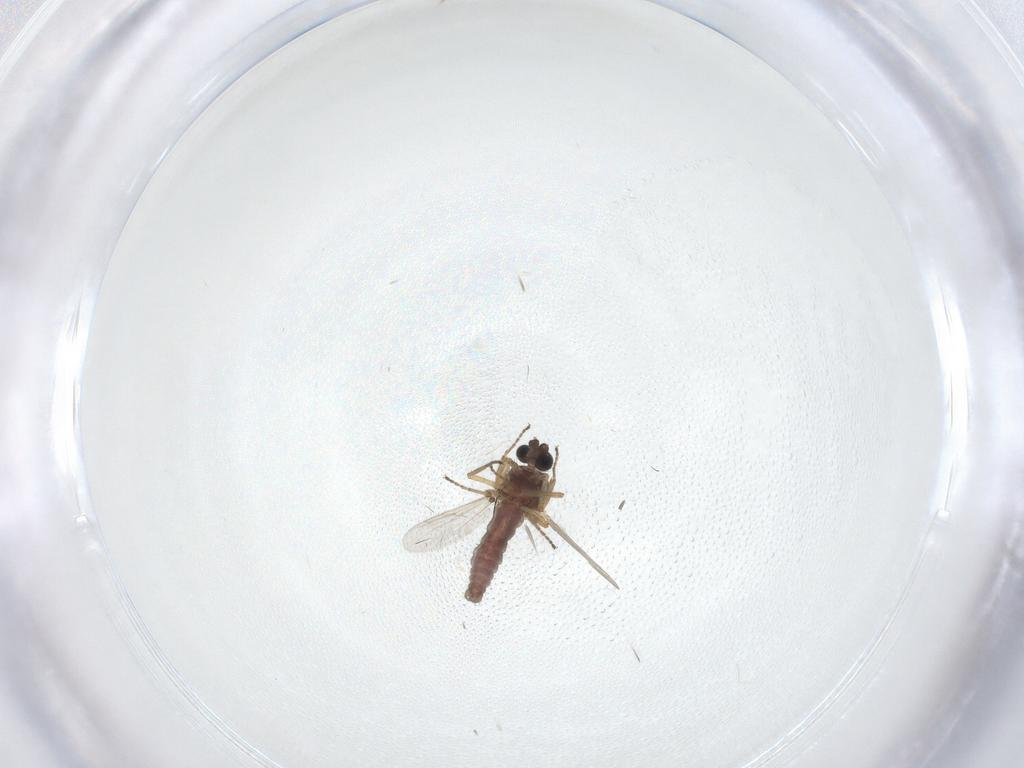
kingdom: Animalia
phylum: Arthropoda
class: Insecta
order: Diptera
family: Ceratopogonidae
